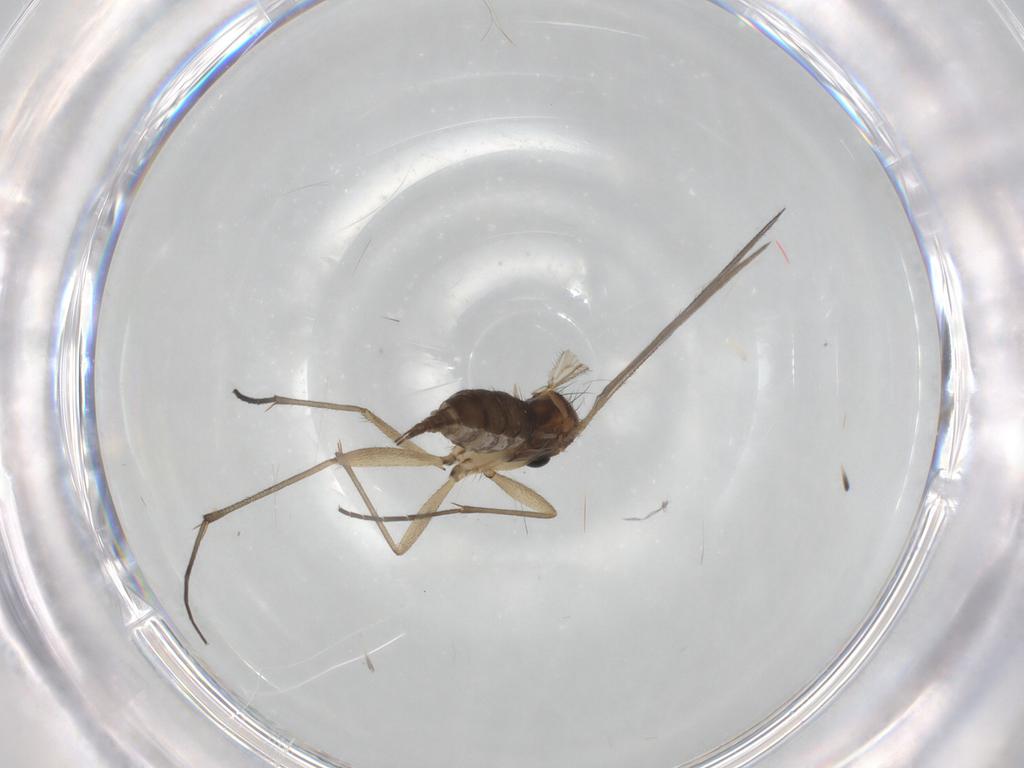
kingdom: Animalia
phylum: Arthropoda
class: Insecta
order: Diptera
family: Sciaridae
